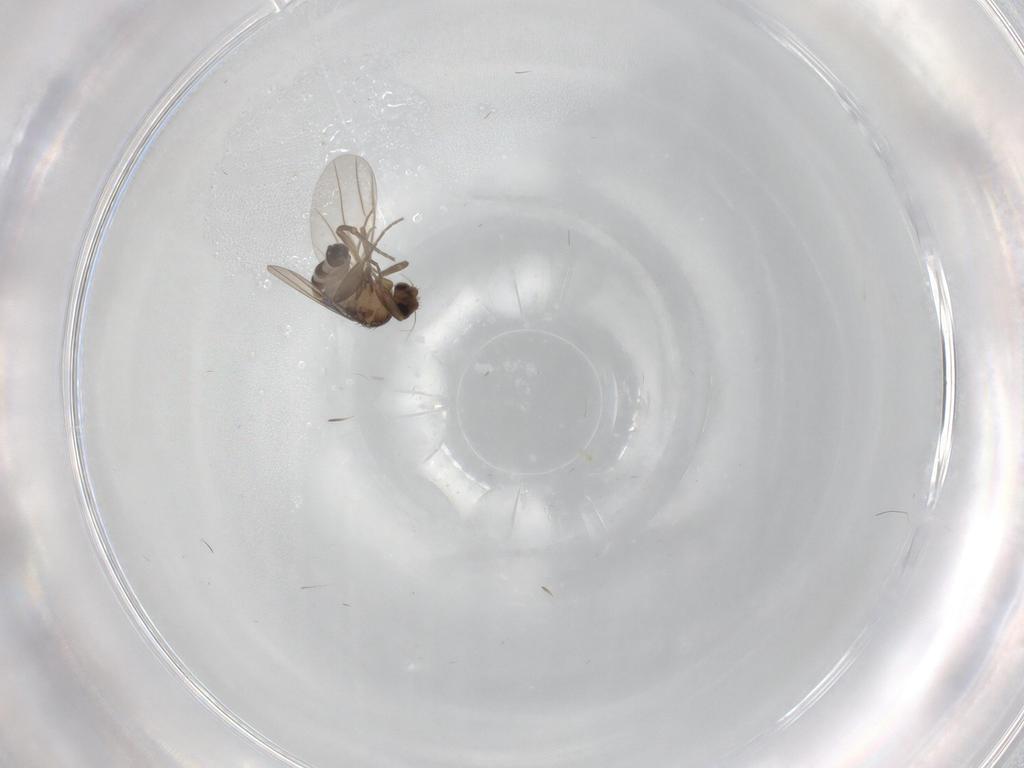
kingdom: Animalia
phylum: Arthropoda
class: Insecta
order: Diptera
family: Phoridae
